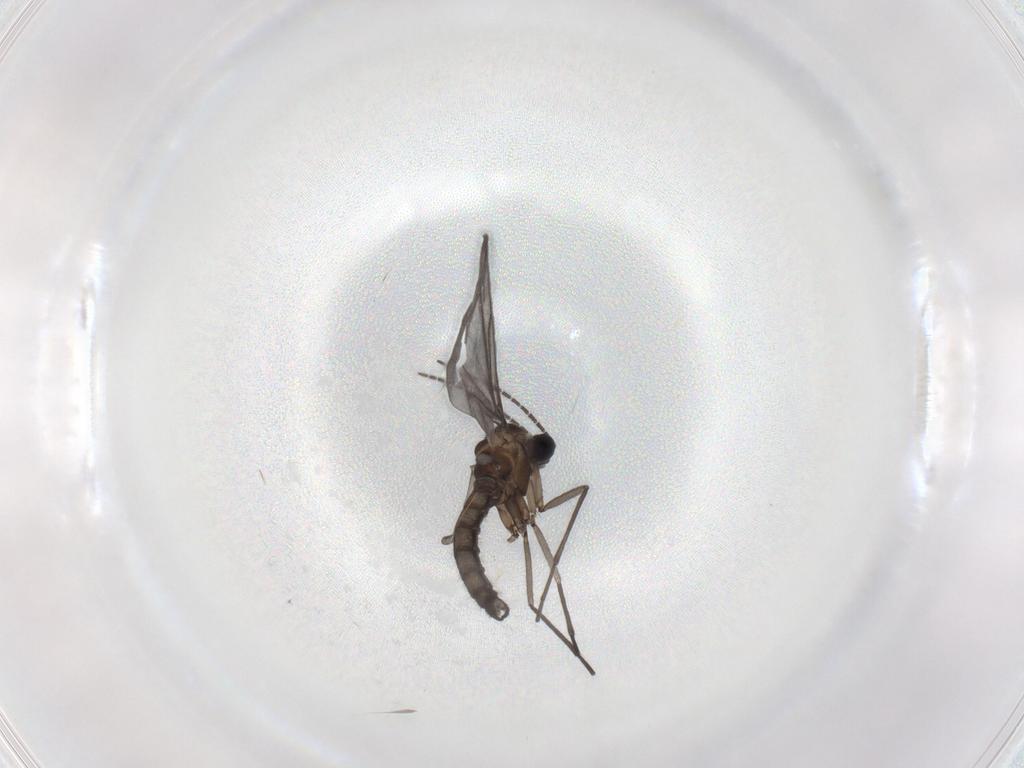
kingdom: Animalia
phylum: Arthropoda
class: Insecta
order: Diptera
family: Sciaridae
